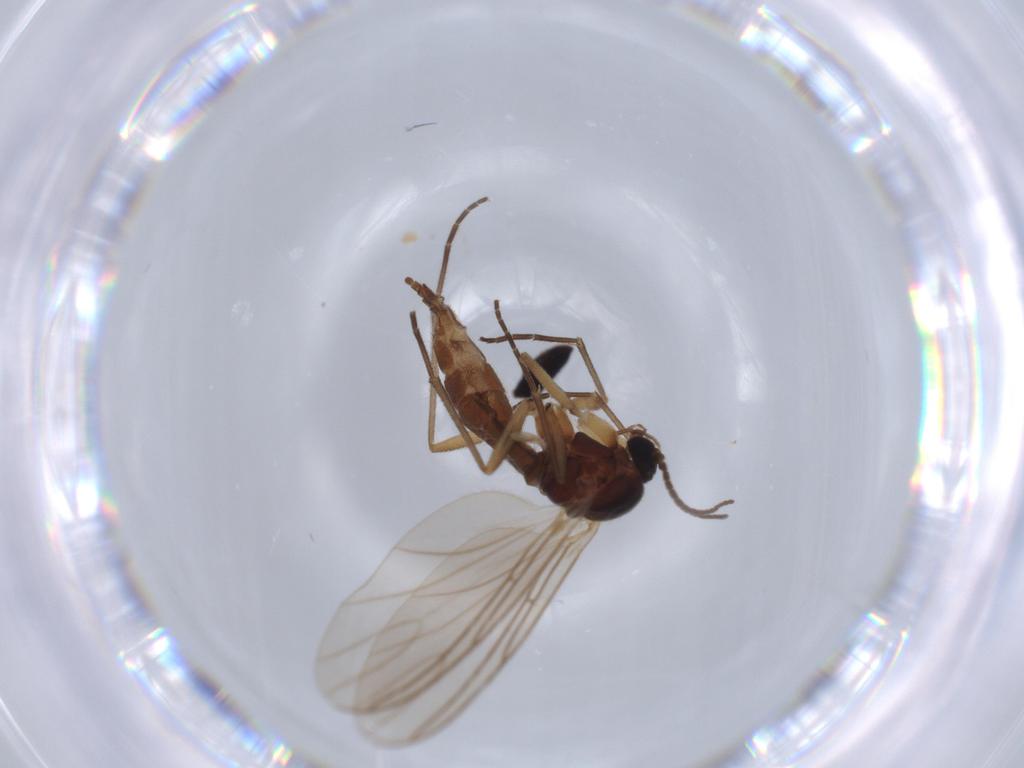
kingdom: Animalia
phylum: Arthropoda
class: Insecta
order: Diptera
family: Sciaridae
